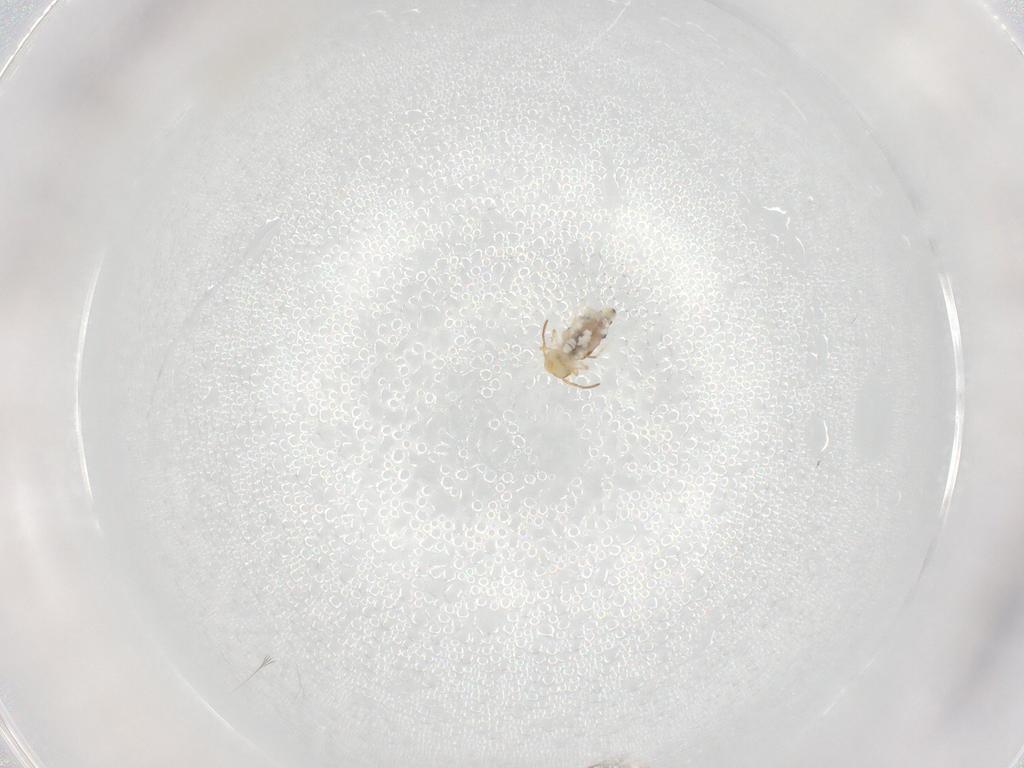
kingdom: Animalia
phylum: Arthropoda
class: Collembola
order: Symphypleona
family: Bourletiellidae
